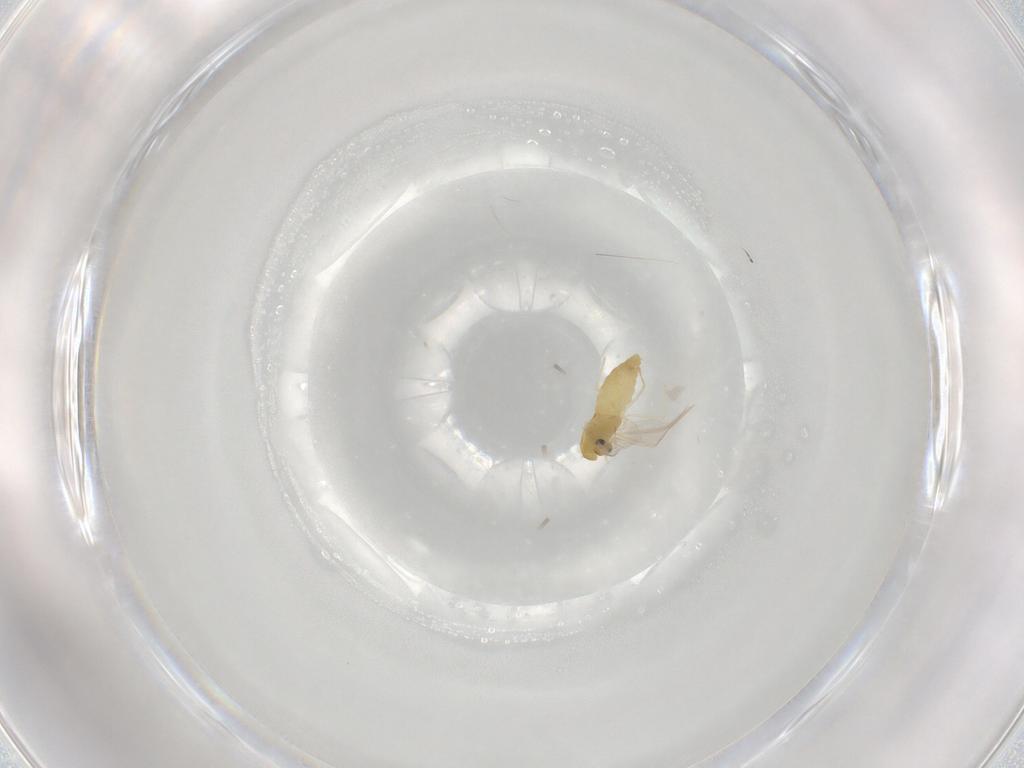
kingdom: Animalia
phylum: Arthropoda
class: Insecta
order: Diptera
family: Chironomidae
